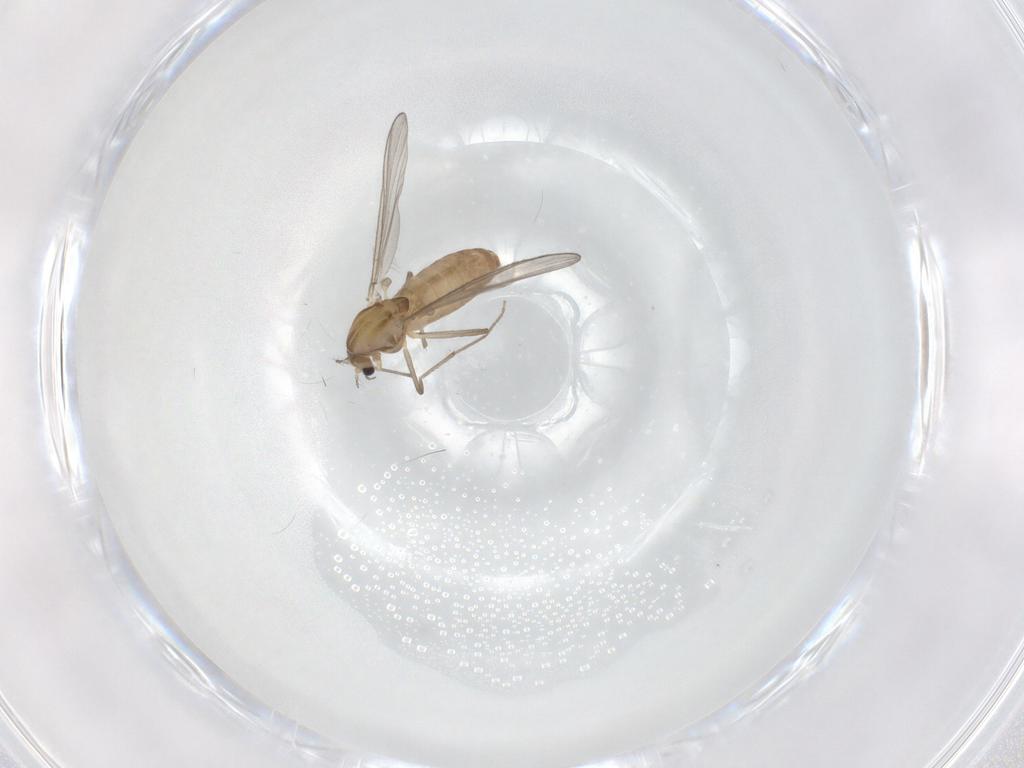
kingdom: Animalia
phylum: Arthropoda
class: Insecta
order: Diptera
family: Chironomidae
